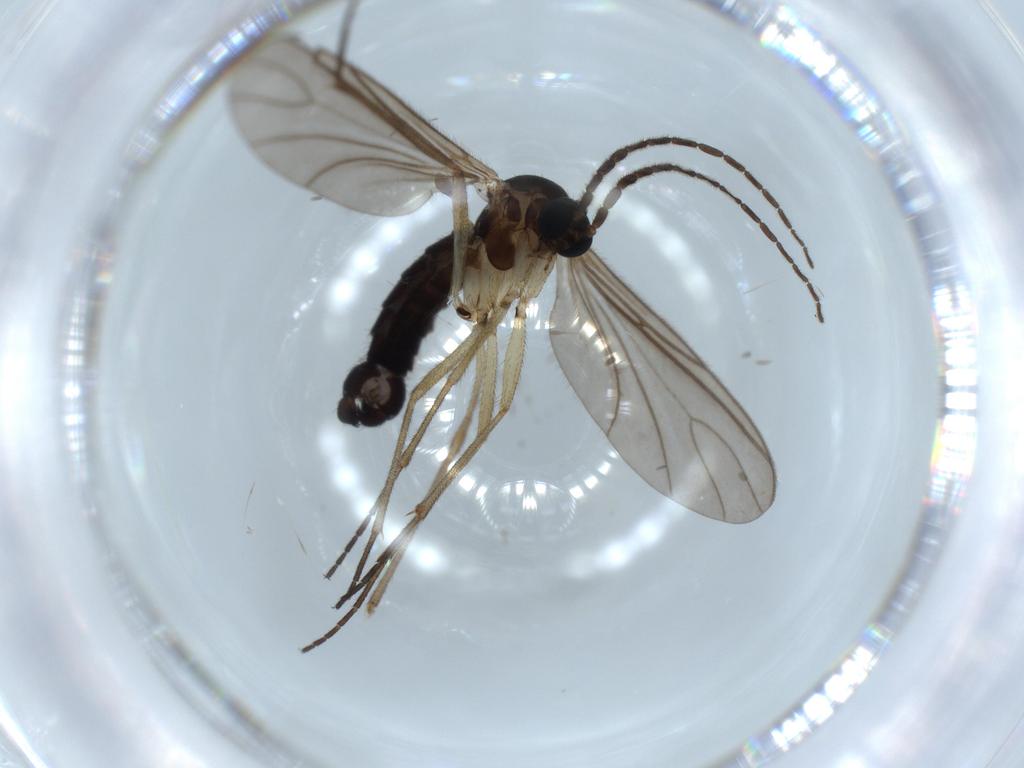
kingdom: Animalia
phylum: Arthropoda
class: Insecta
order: Diptera
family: Sciaridae
